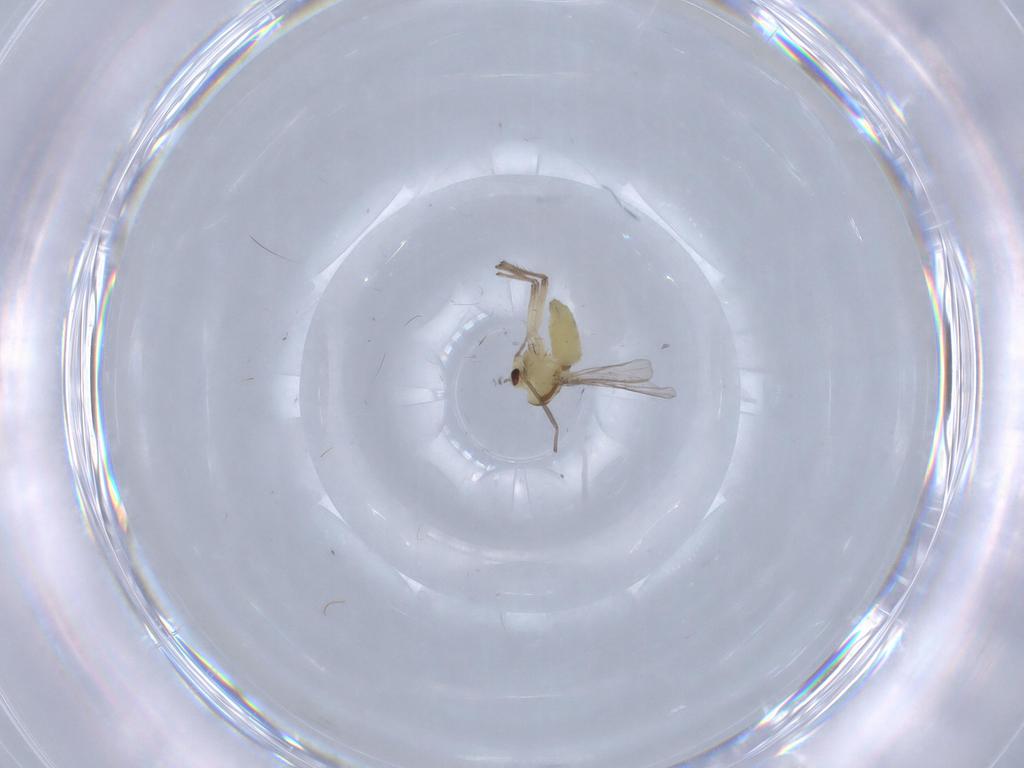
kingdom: Animalia
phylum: Arthropoda
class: Insecta
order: Diptera
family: Chironomidae
